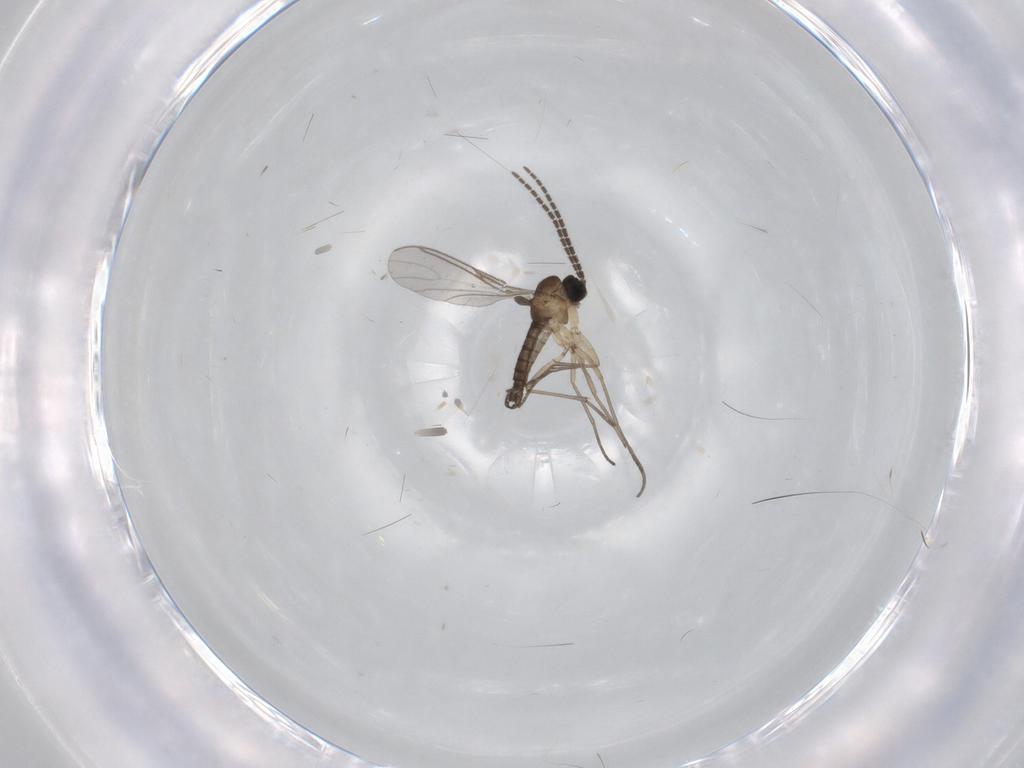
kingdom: Animalia
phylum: Arthropoda
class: Insecta
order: Diptera
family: Sciaridae
